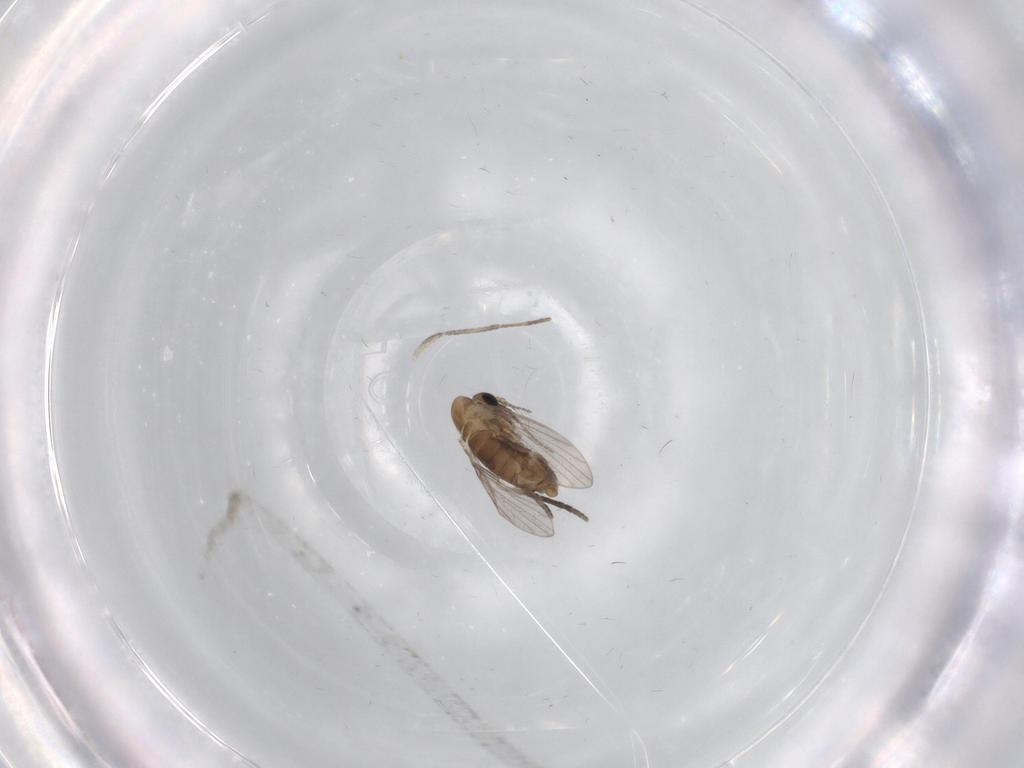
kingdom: Animalia
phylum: Arthropoda
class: Insecta
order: Diptera
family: Psychodidae
